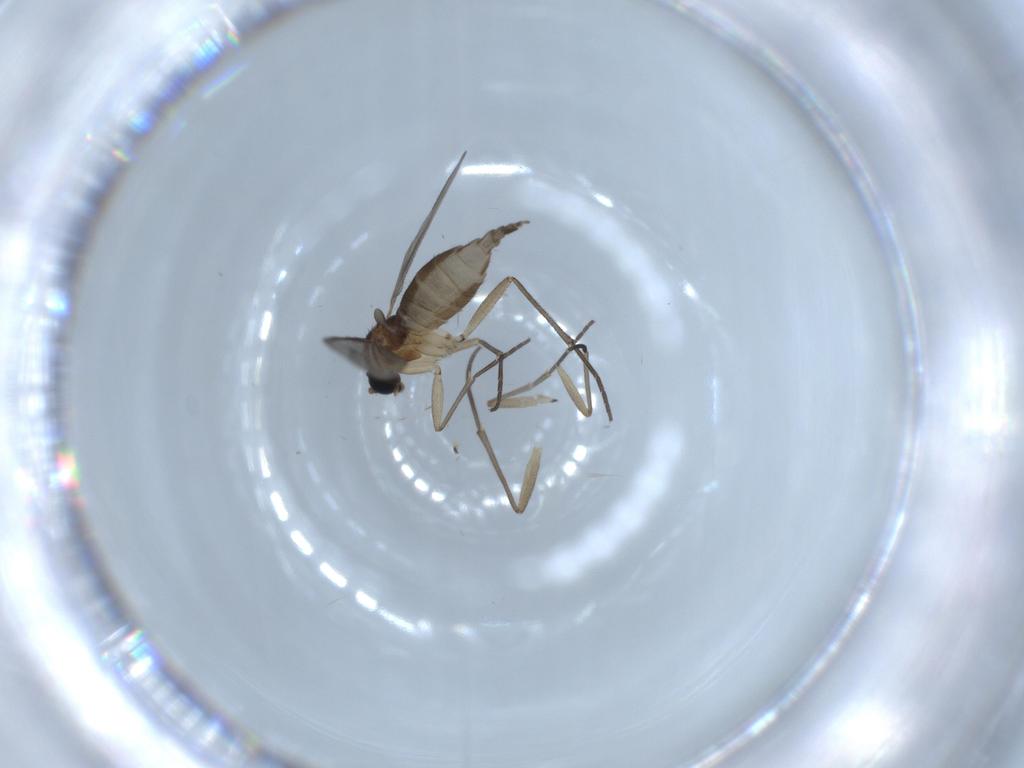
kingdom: Animalia
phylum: Arthropoda
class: Insecta
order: Diptera
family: Sciaridae
